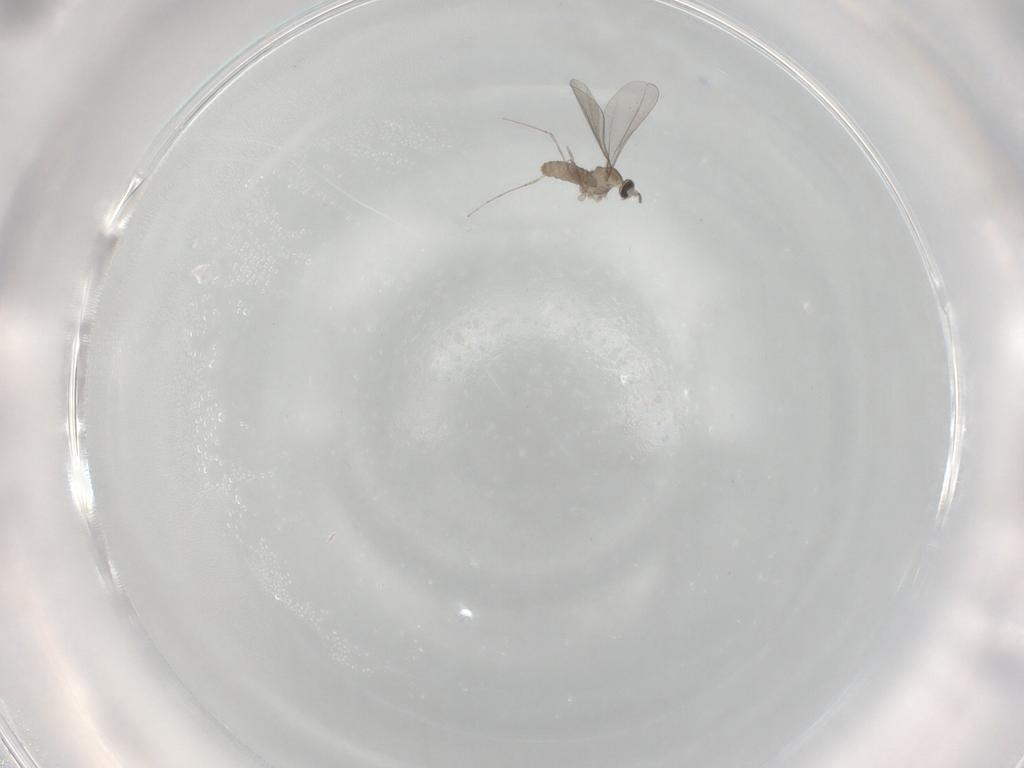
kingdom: Animalia
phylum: Arthropoda
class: Insecta
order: Diptera
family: Cecidomyiidae
